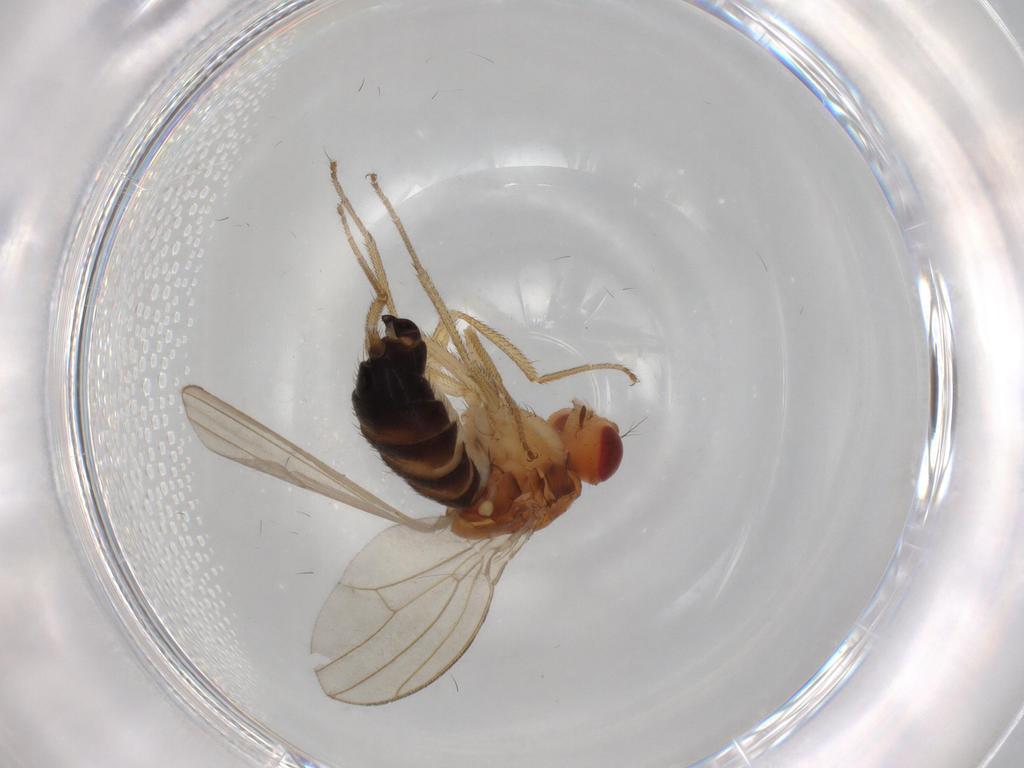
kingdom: Animalia
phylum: Arthropoda
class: Insecta
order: Diptera
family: Drosophilidae
